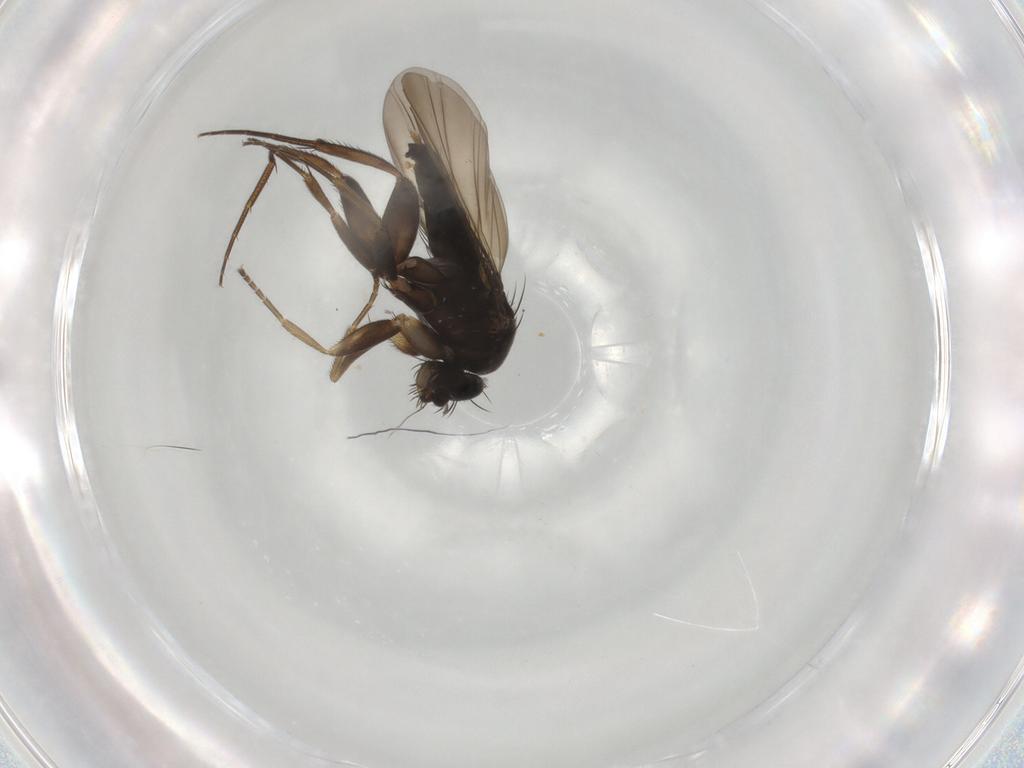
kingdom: Animalia
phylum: Arthropoda
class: Insecta
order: Diptera
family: Phoridae
